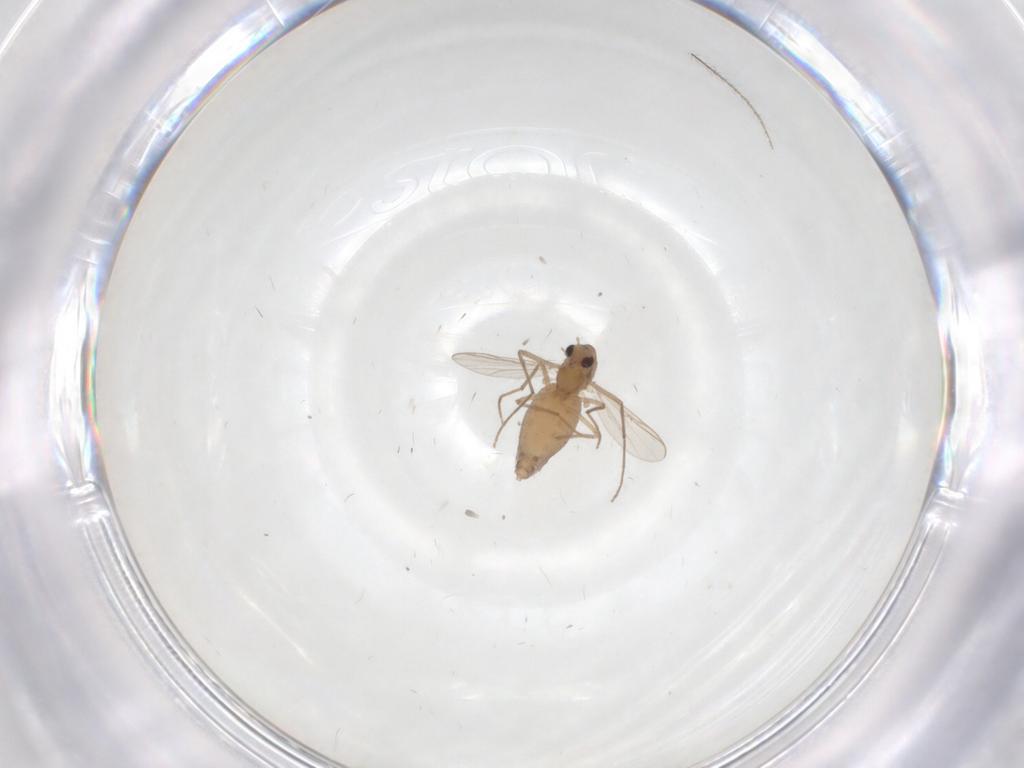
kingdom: Animalia
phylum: Arthropoda
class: Insecta
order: Diptera
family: Chironomidae
